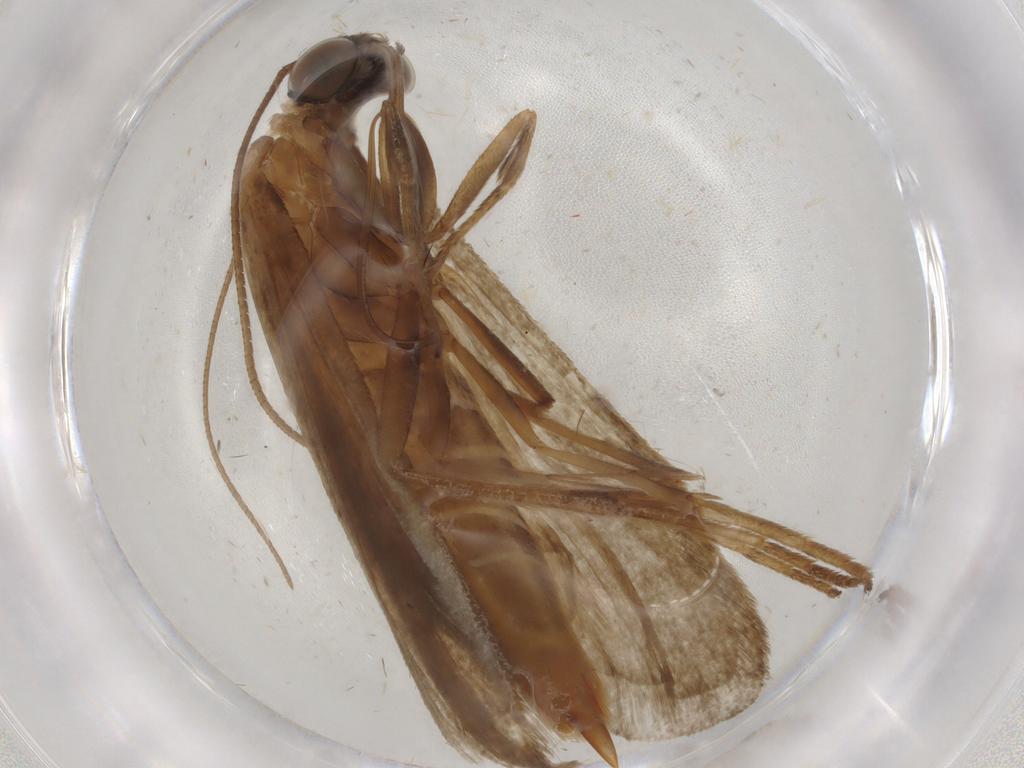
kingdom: Animalia
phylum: Arthropoda
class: Insecta
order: Lepidoptera
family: Pyralidae
